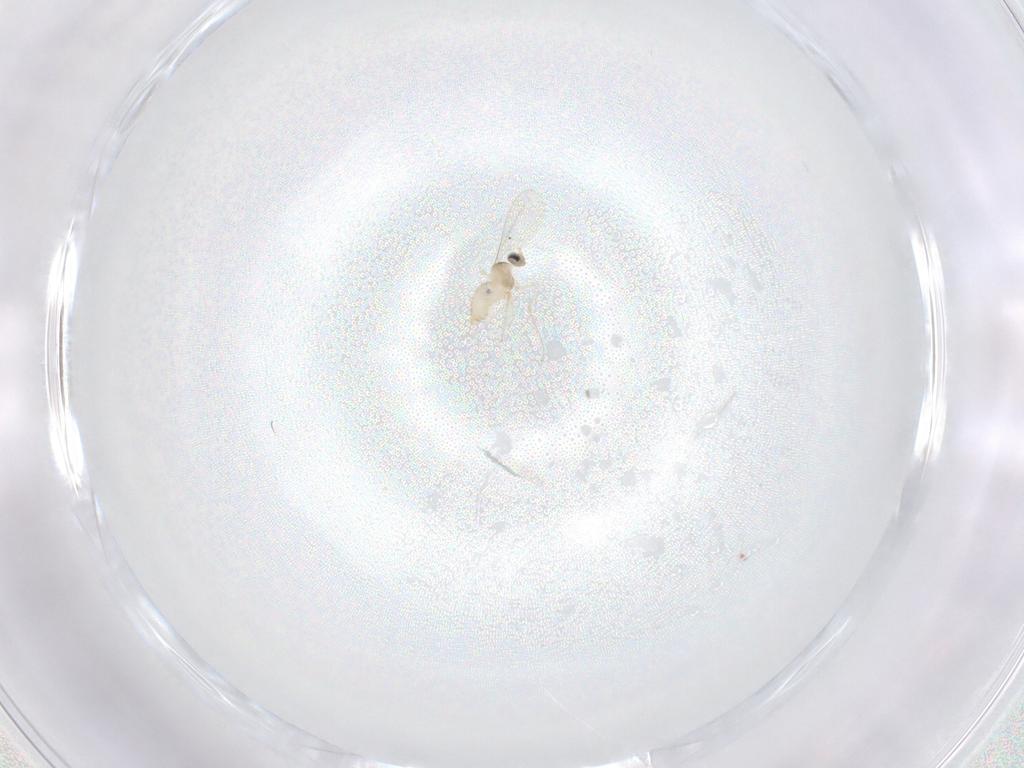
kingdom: Animalia
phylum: Arthropoda
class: Insecta
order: Diptera
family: Cecidomyiidae
